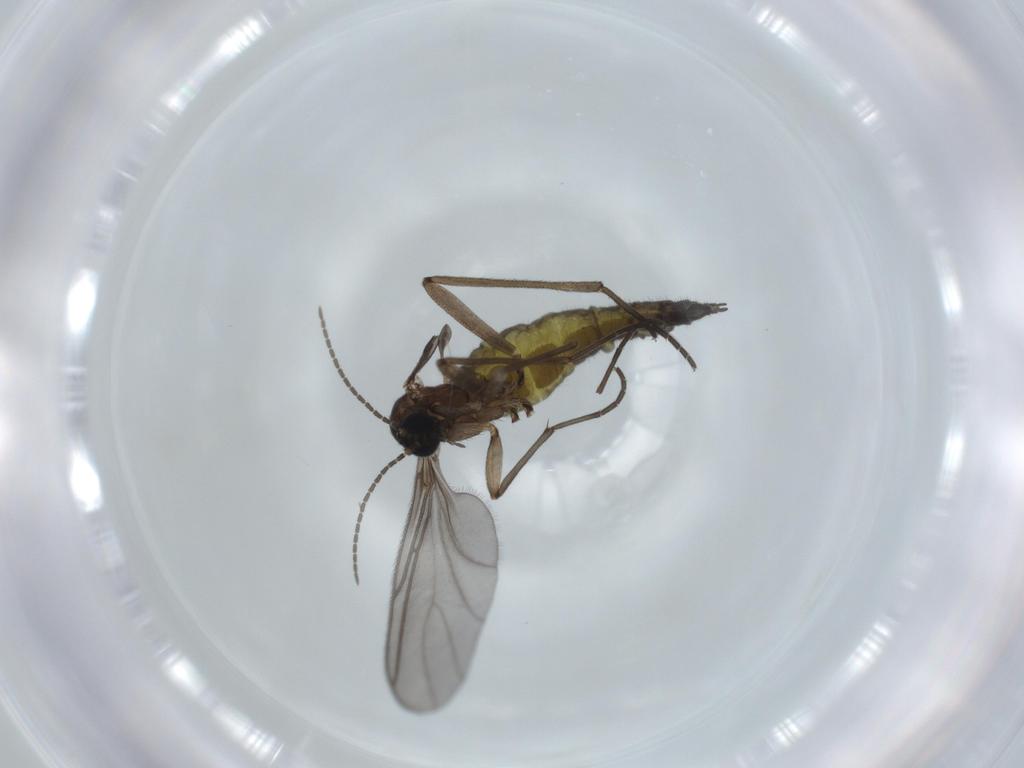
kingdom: Animalia
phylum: Arthropoda
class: Insecta
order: Diptera
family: Sciaridae
